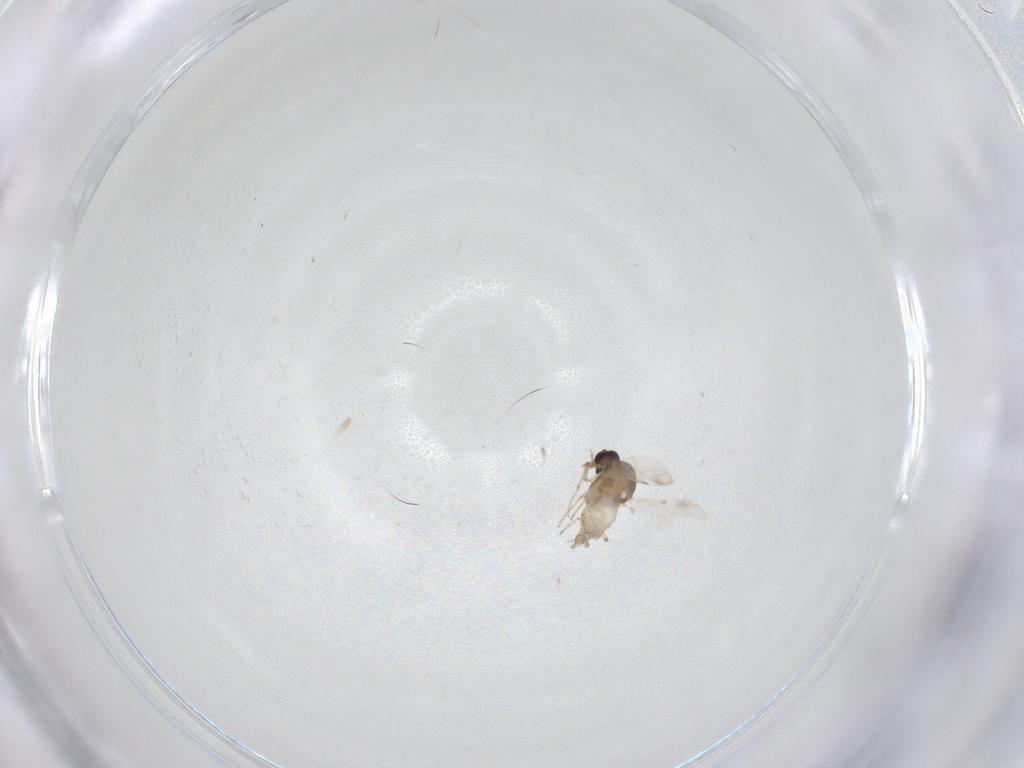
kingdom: Animalia
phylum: Arthropoda
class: Insecta
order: Diptera
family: Ceratopogonidae
